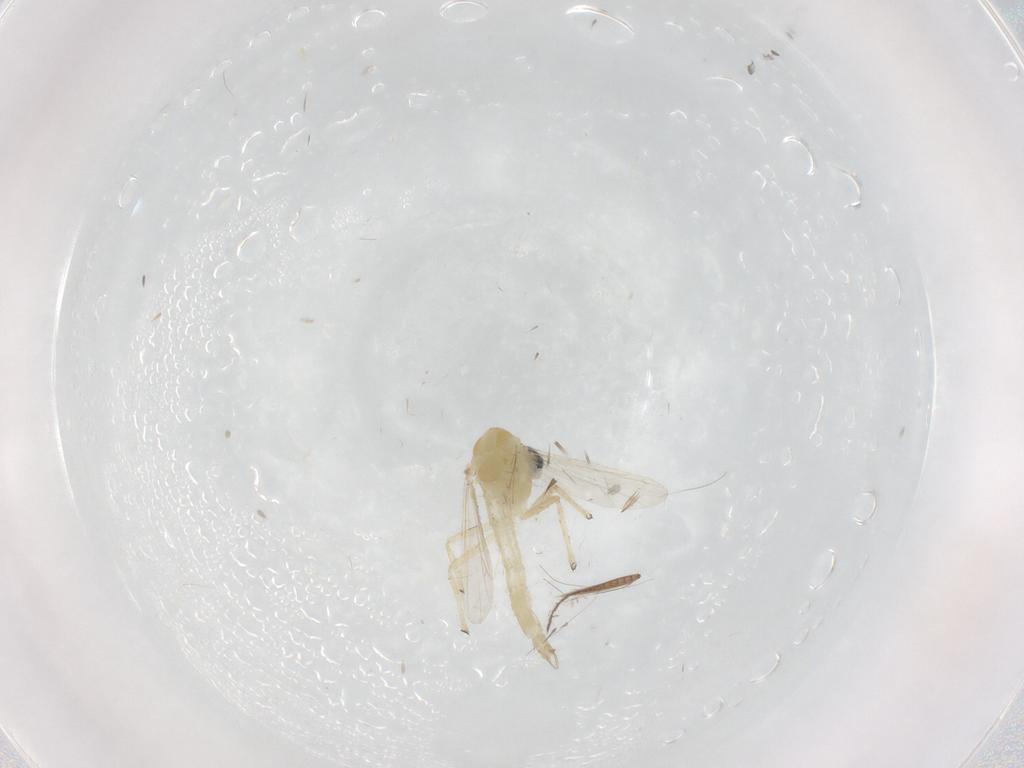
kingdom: Animalia
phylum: Arthropoda
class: Insecta
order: Diptera
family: Chironomidae
